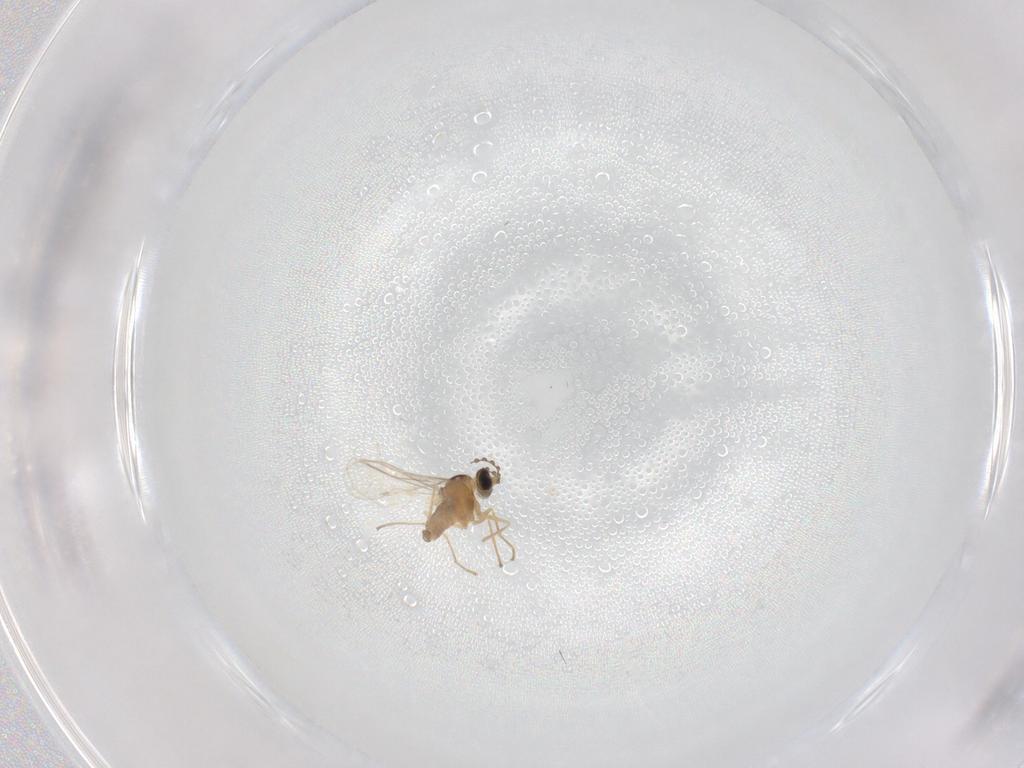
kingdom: Animalia
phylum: Arthropoda
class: Insecta
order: Diptera
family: Cecidomyiidae
